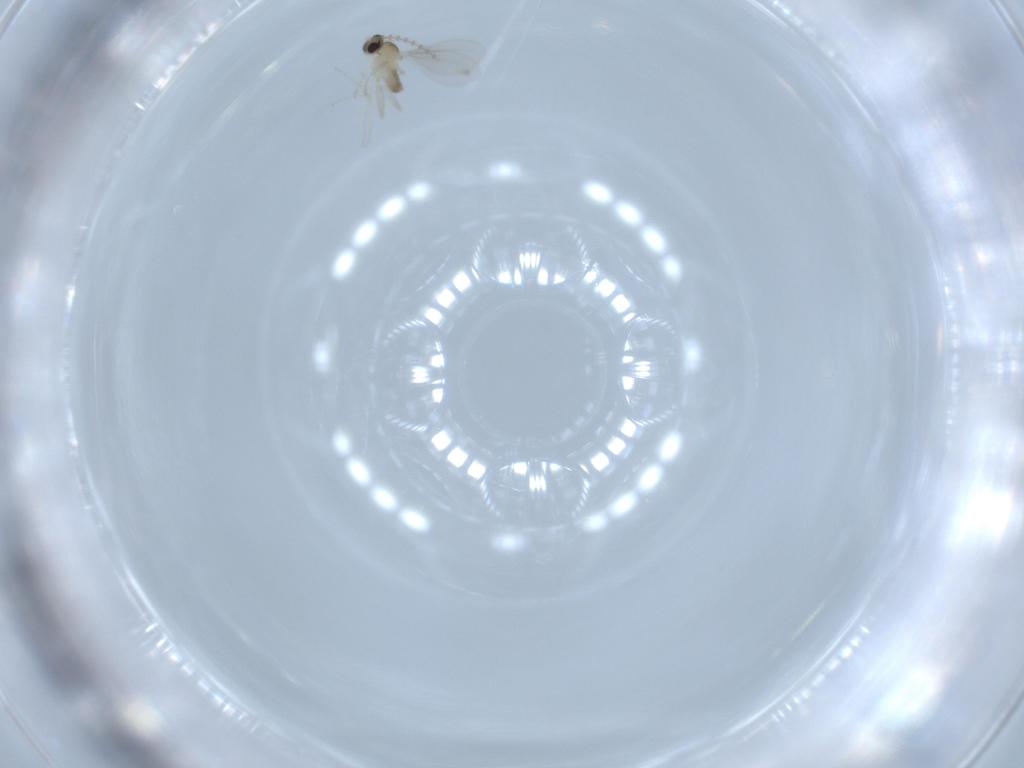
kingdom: Animalia
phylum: Arthropoda
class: Insecta
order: Diptera
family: Cecidomyiidae
